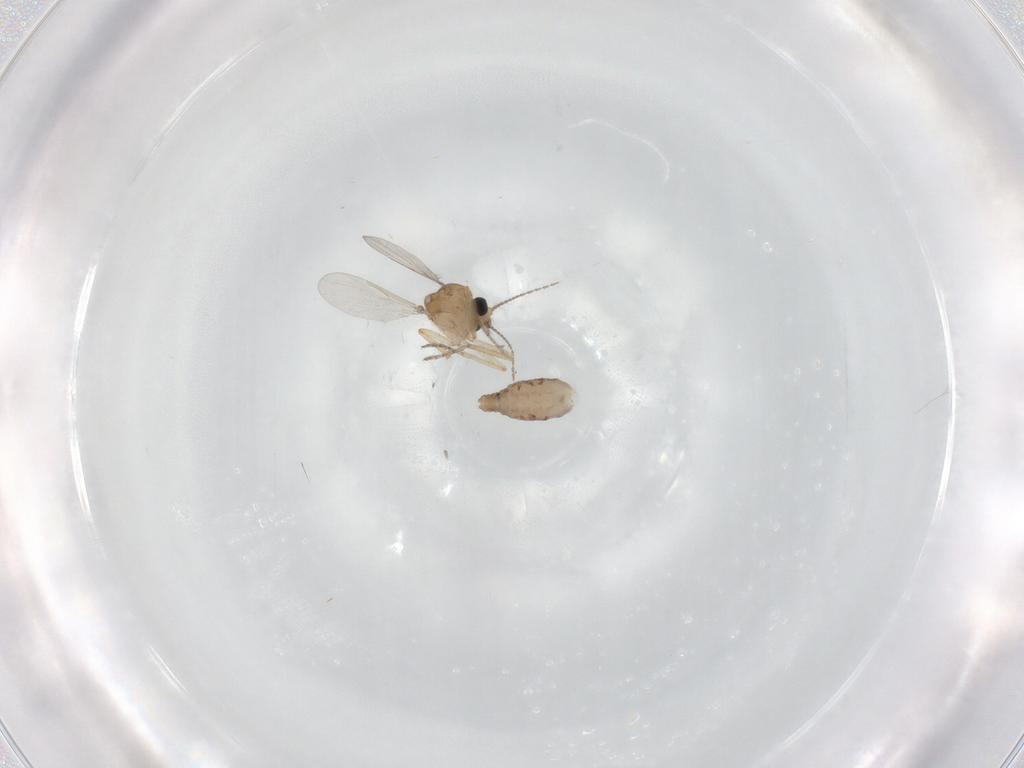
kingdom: Animalia
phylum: Arthropoda
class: Insecta
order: Diptera
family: Ceratopogonidae
